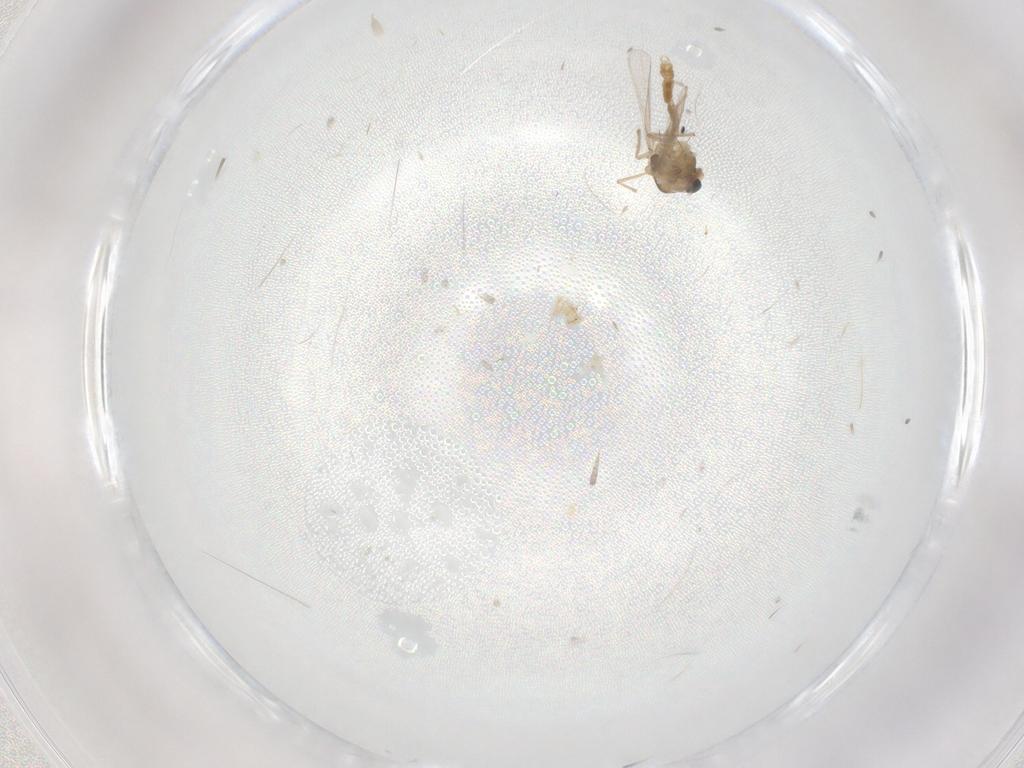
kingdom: Animalia
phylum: Arthropoda
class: Insecta
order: Diptera
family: Chironomidae
